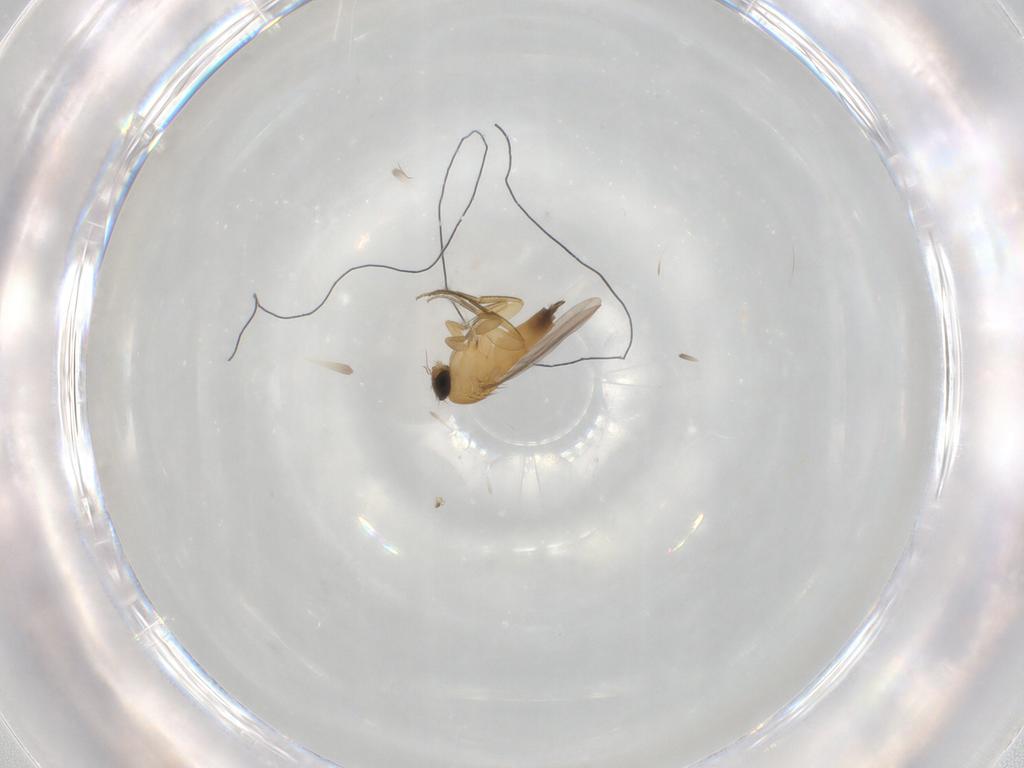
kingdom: Animalia
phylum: Arthropoda
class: Insecta
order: Diptera
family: Ceratopogonidae
